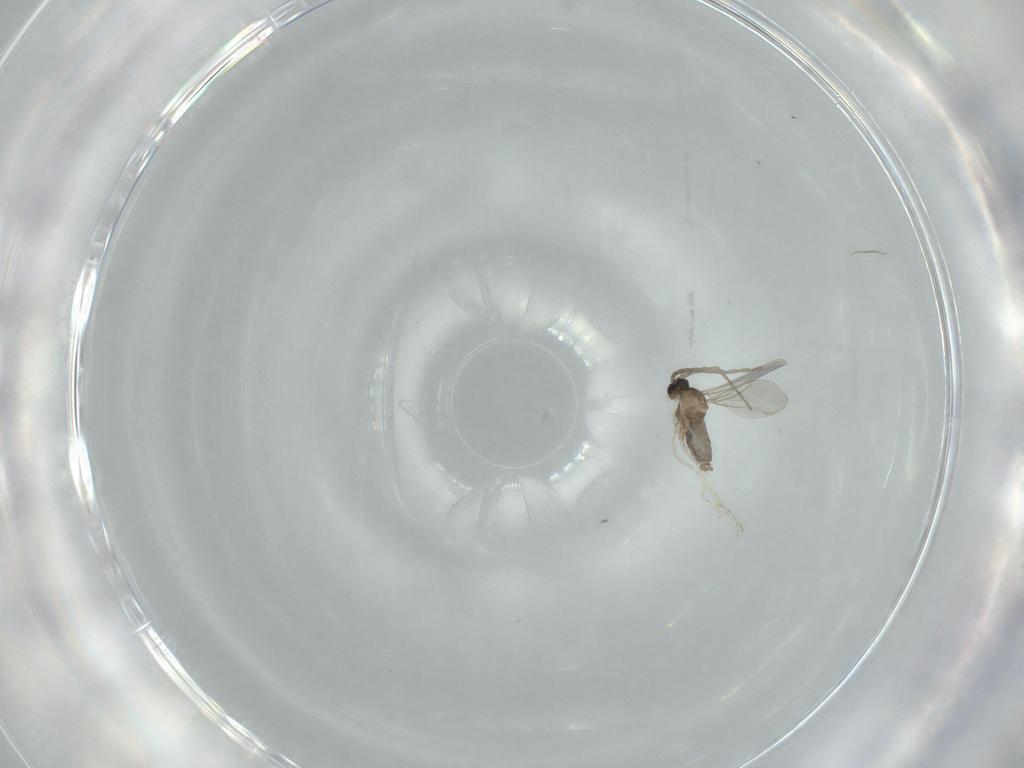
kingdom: Animalia
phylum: Arthropoda
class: Insecta
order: Diptera
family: Cecidomyiidae
